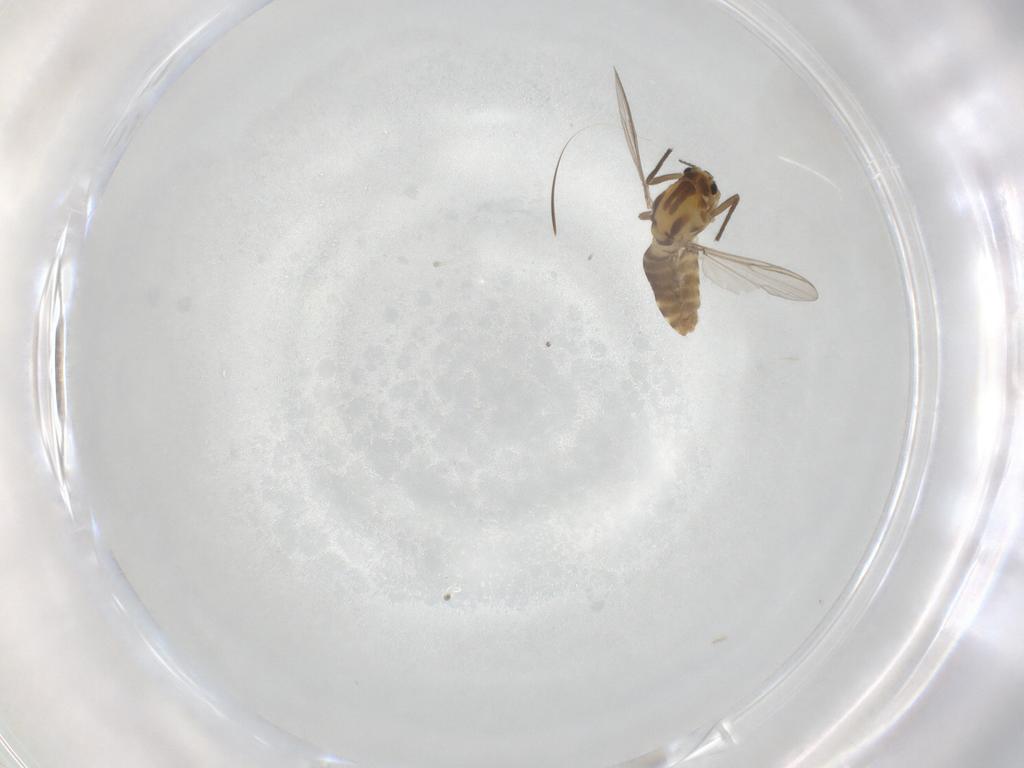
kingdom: Animalia
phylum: Arthropoda
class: Insecta
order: Diptera
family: Chironomidae
